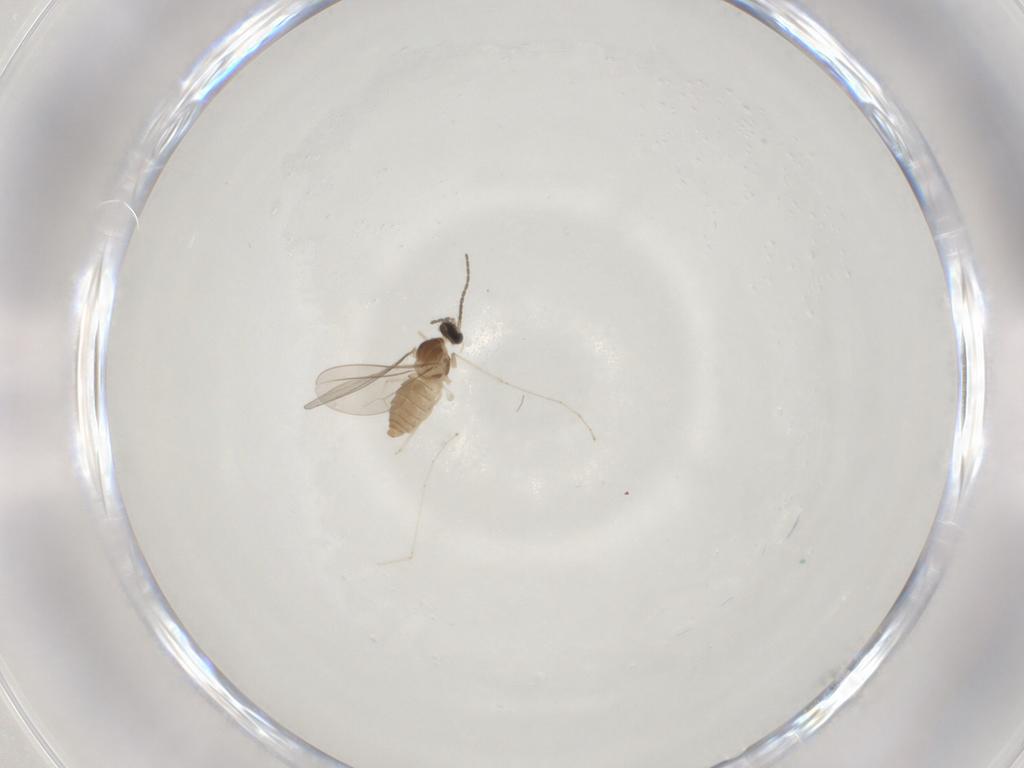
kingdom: Animalia
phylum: Arthropoda
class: Insecta
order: Diptera
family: Cecidomyiidae
